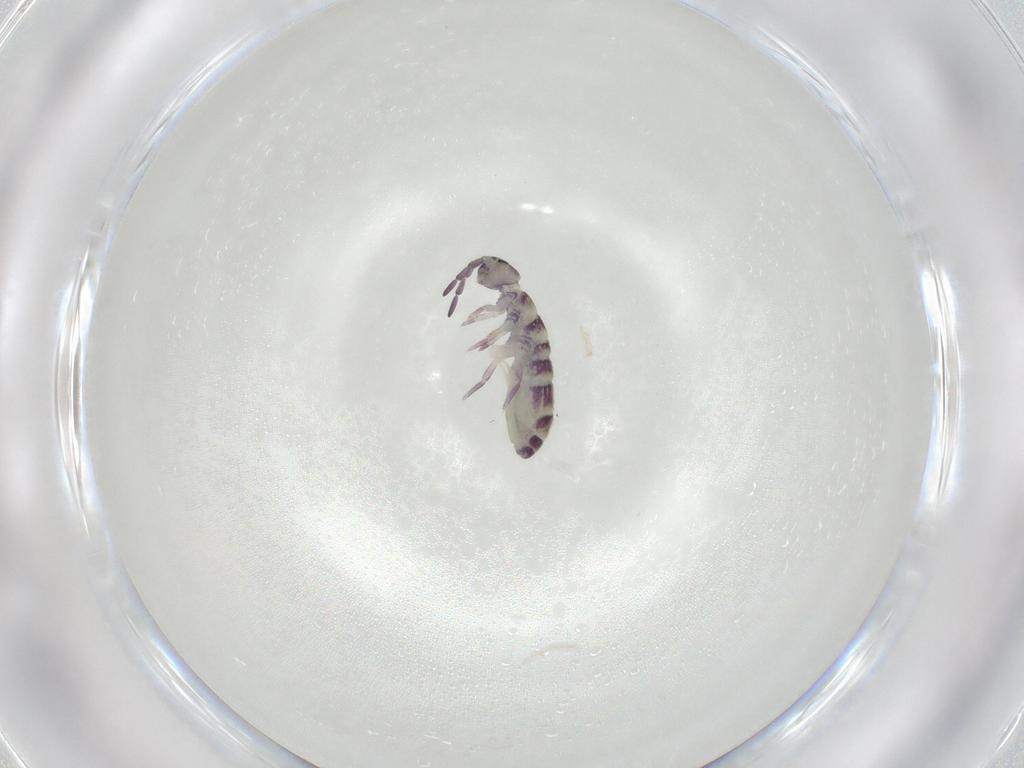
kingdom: Animalia
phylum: Arthropoda
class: Collembola
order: Entomobryomorpha
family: Isotomidae
